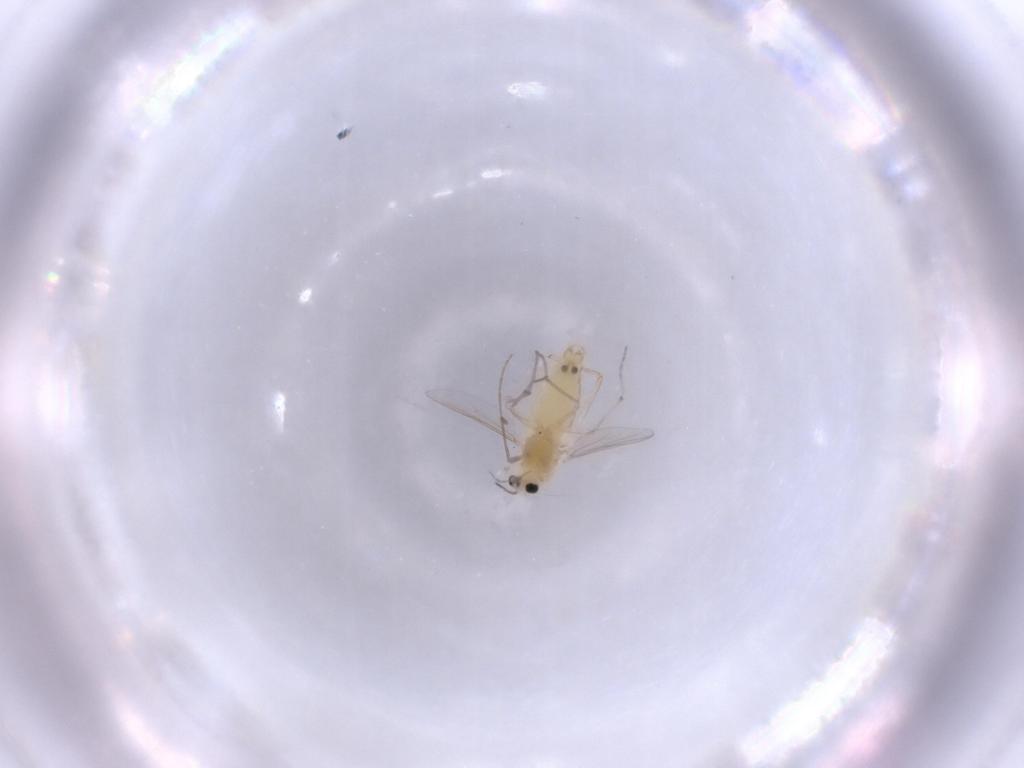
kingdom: Animalia
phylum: Arthropoda
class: Insecta
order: Diptera
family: Chironomidae
